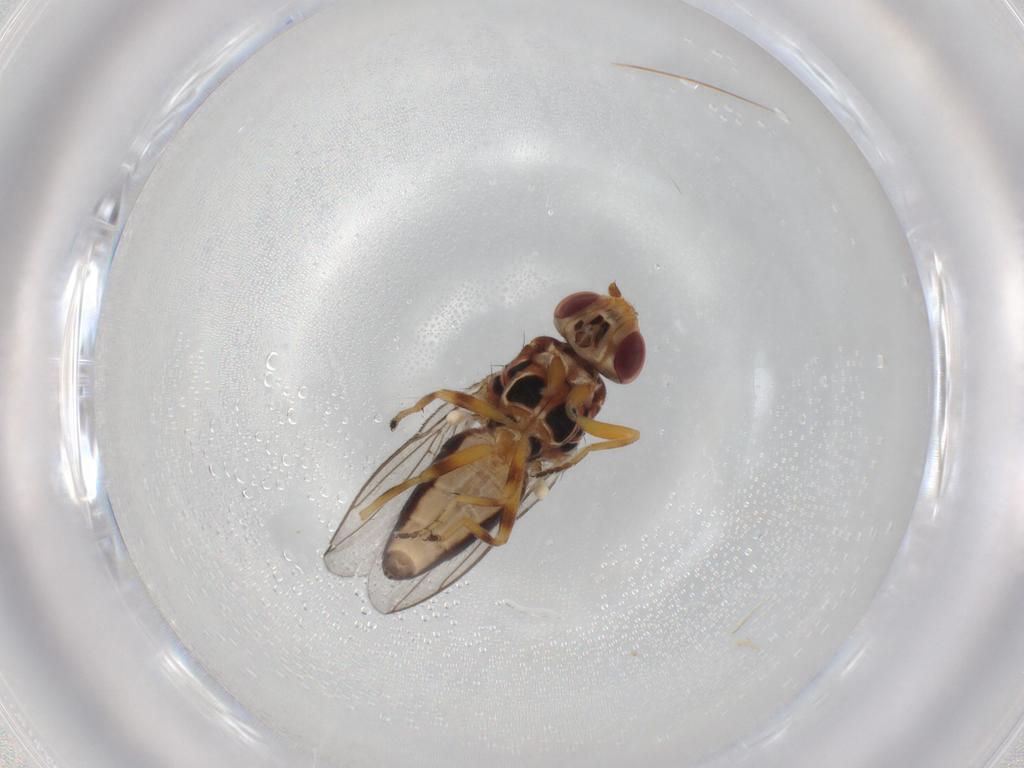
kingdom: Animalia
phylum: Arthropoda
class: Insecta
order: Diptera
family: Chloropidae
